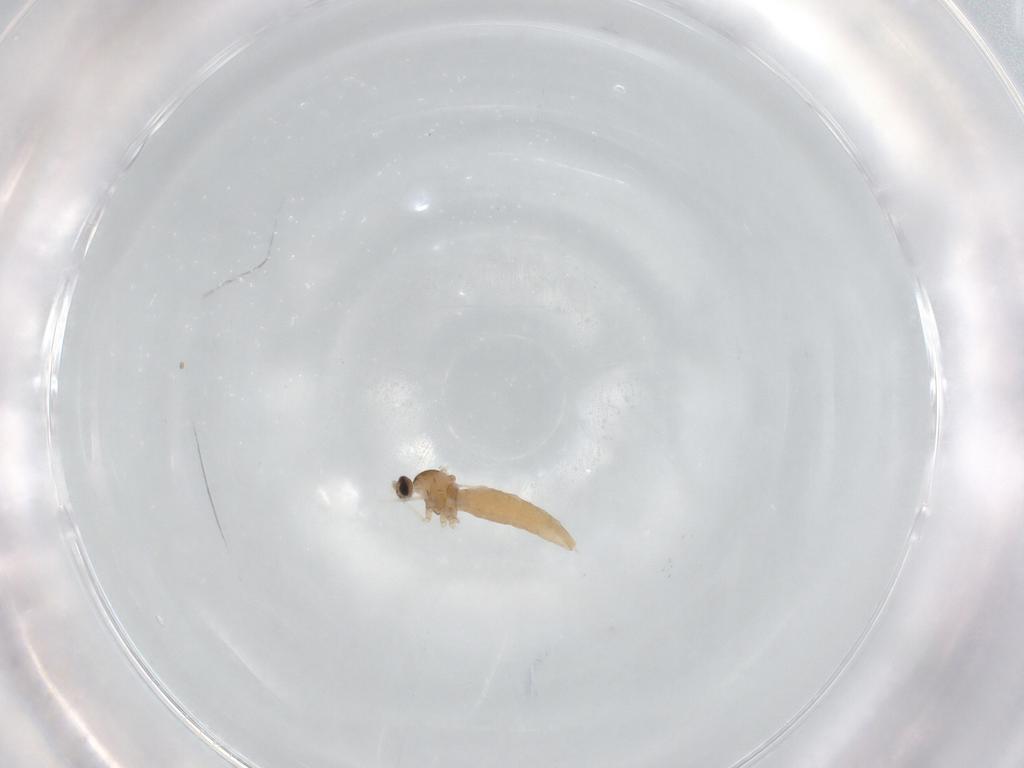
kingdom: Animalia
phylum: Arthropoda
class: Insecta
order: Diptera
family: Cecidomyiidae
